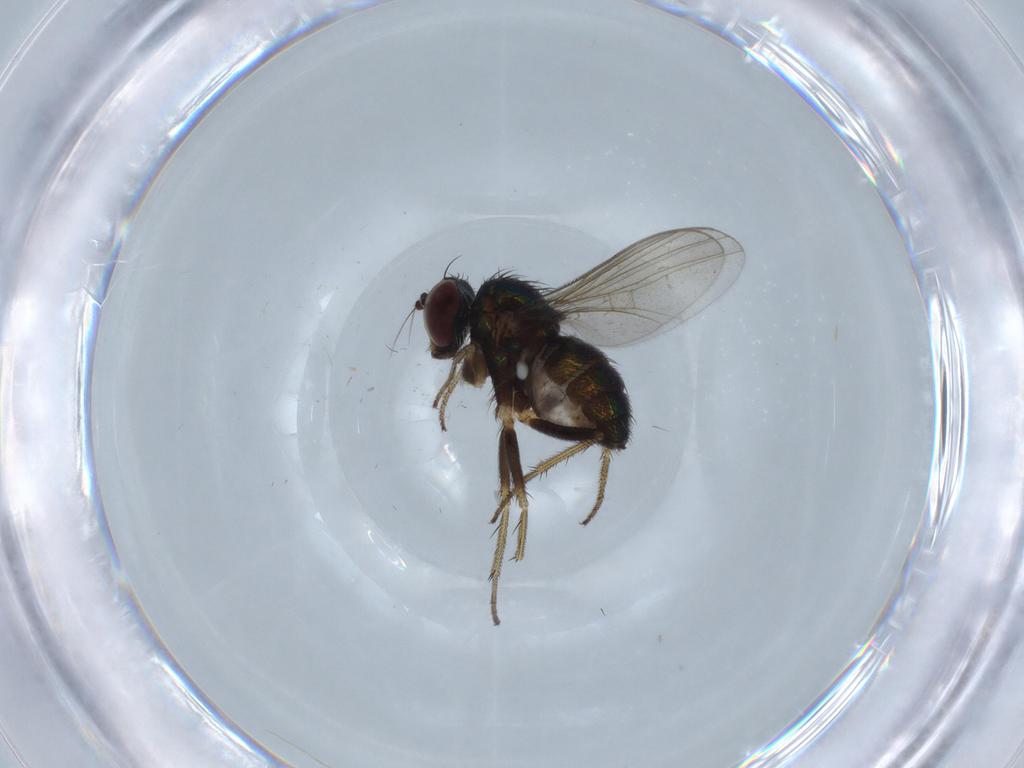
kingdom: Animalia
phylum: Arthropoda
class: Insecta
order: Diptera
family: Dolichopodidae
